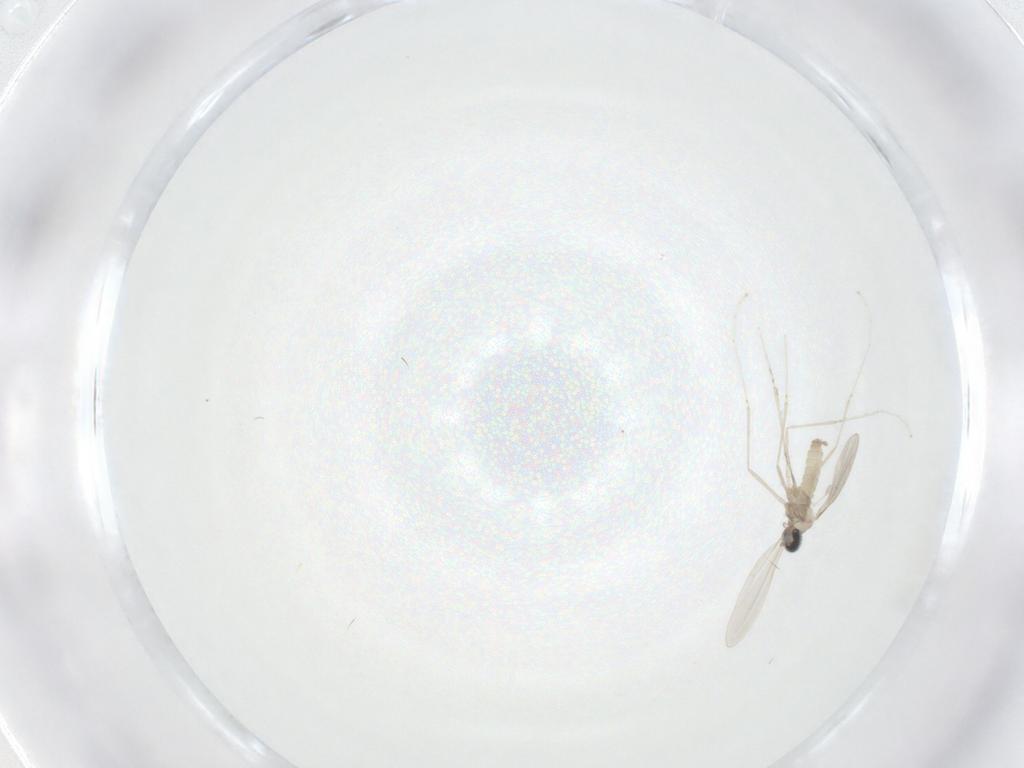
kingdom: Animalia
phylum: Arthropoda
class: Insecta
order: Diptera
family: Cecidomyiidae
